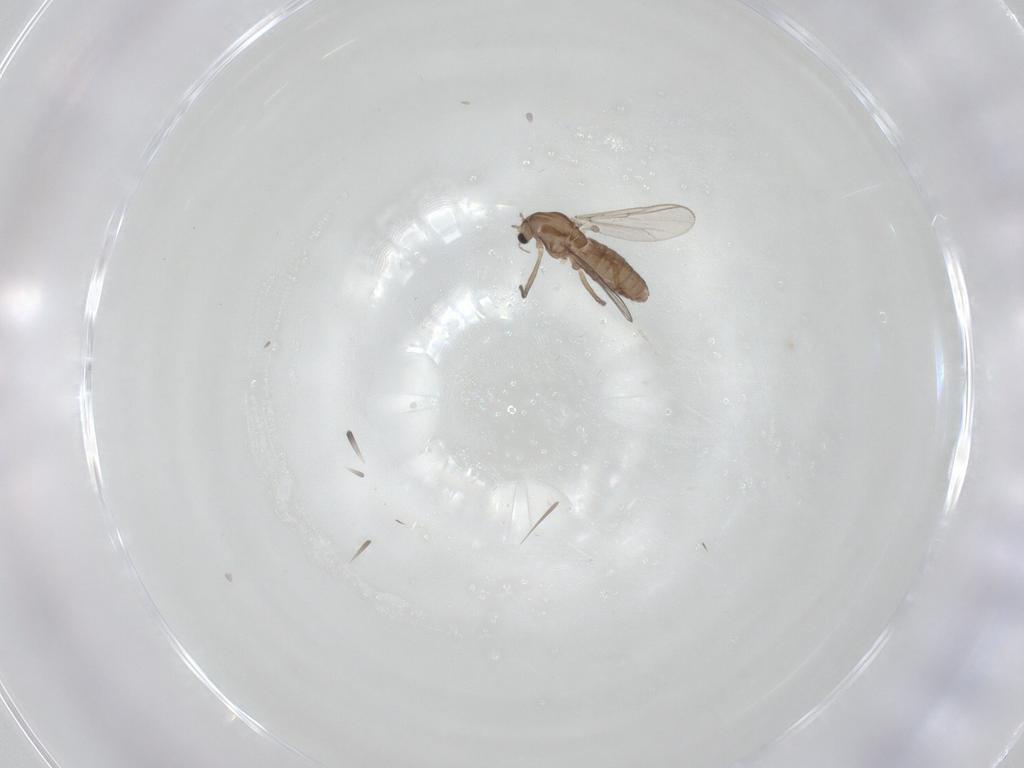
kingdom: Animalia
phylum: Arthropoda
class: Insecta
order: Diptera
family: Chironomidae
